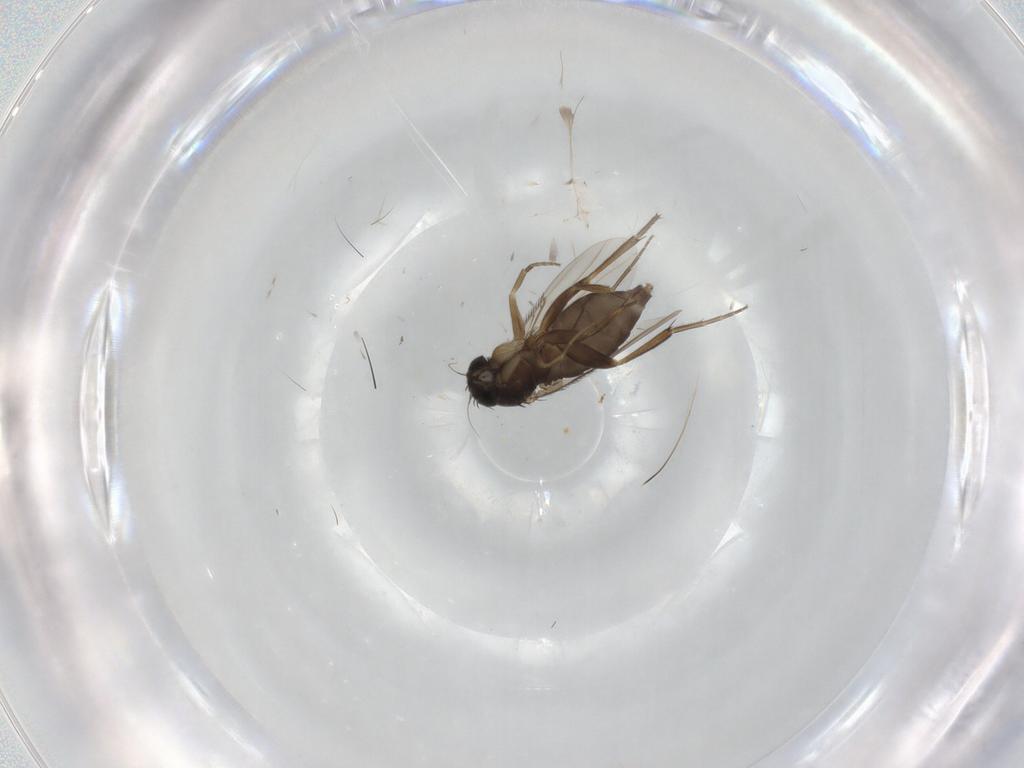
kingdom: Animalia
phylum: Arthropoda
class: Insecta
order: Diptera
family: Phoridae
